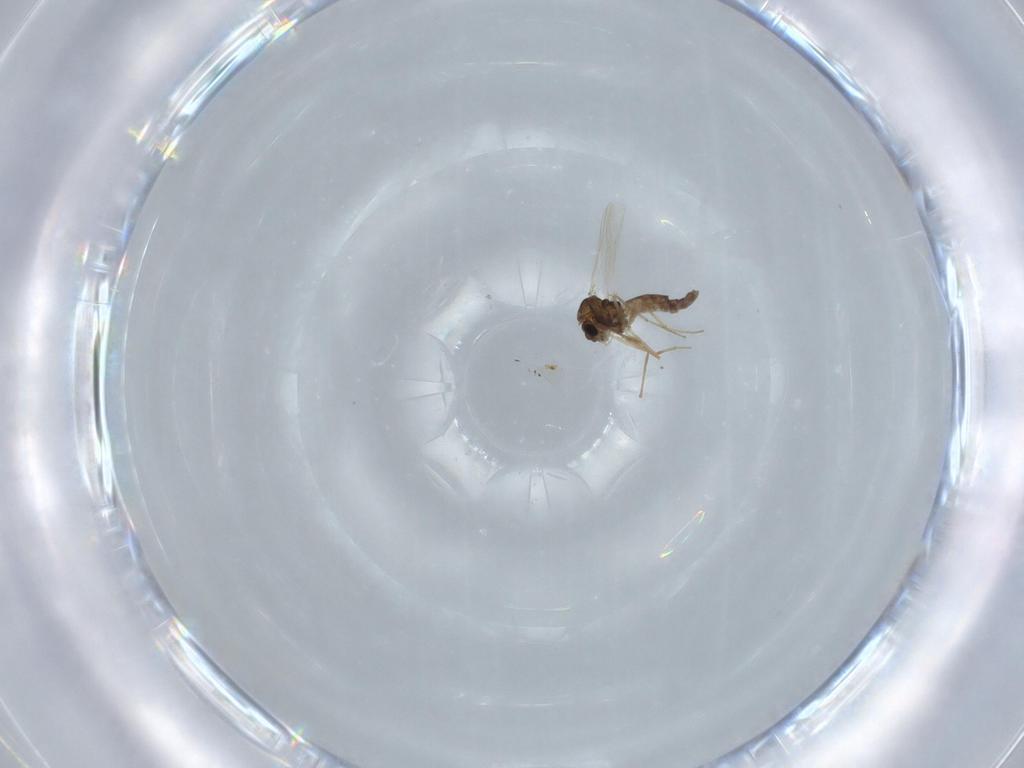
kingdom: Animalia
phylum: Arthropoda
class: Insecta
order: Diptera
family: Chironomidae
